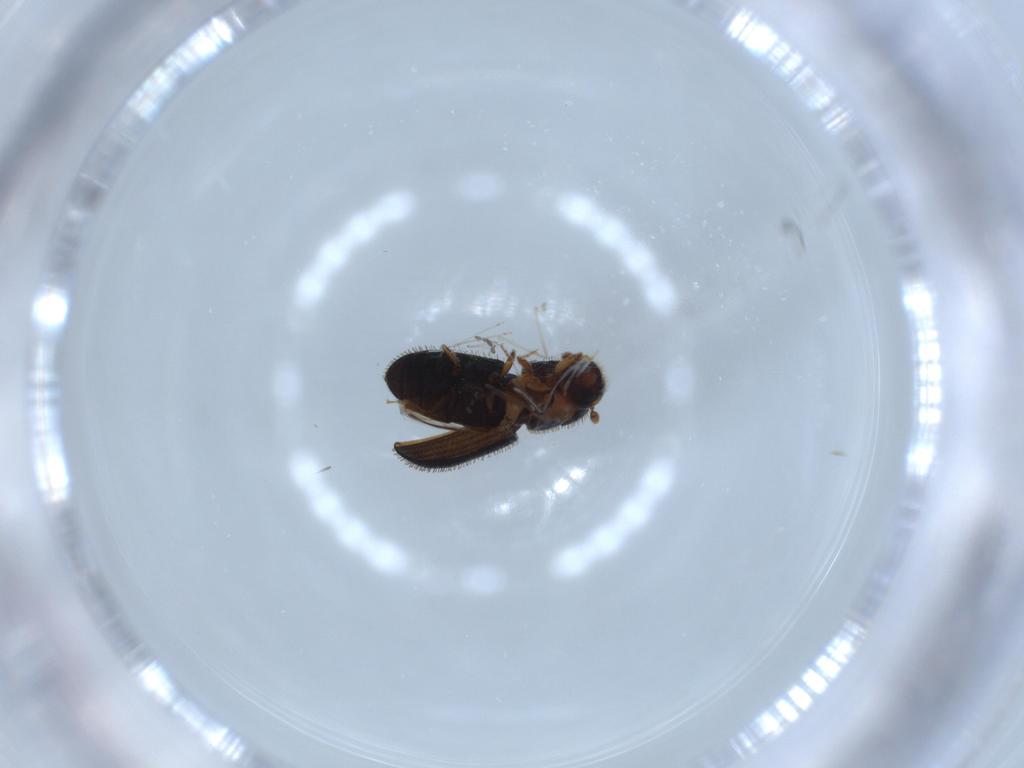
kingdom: Animalia
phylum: Arthropoda
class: Insecta
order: Coleoptera
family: Curculionidae
